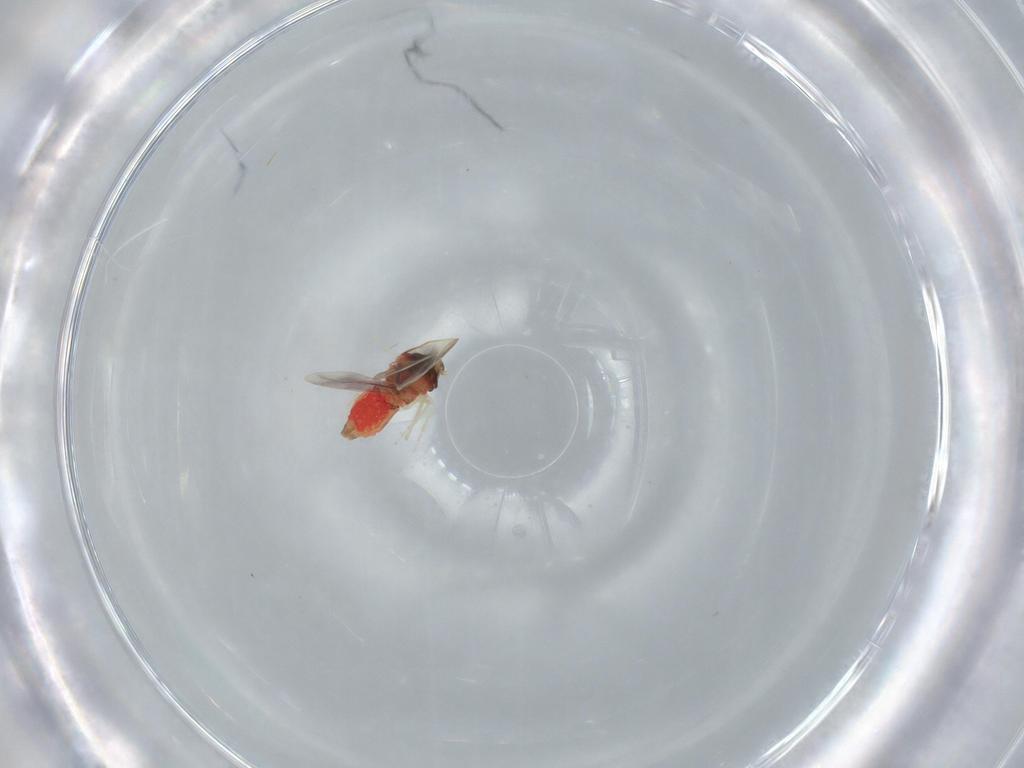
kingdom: Animalia
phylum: Arthropoda
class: Insecta
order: Hemiptera
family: Aleyrodidae
